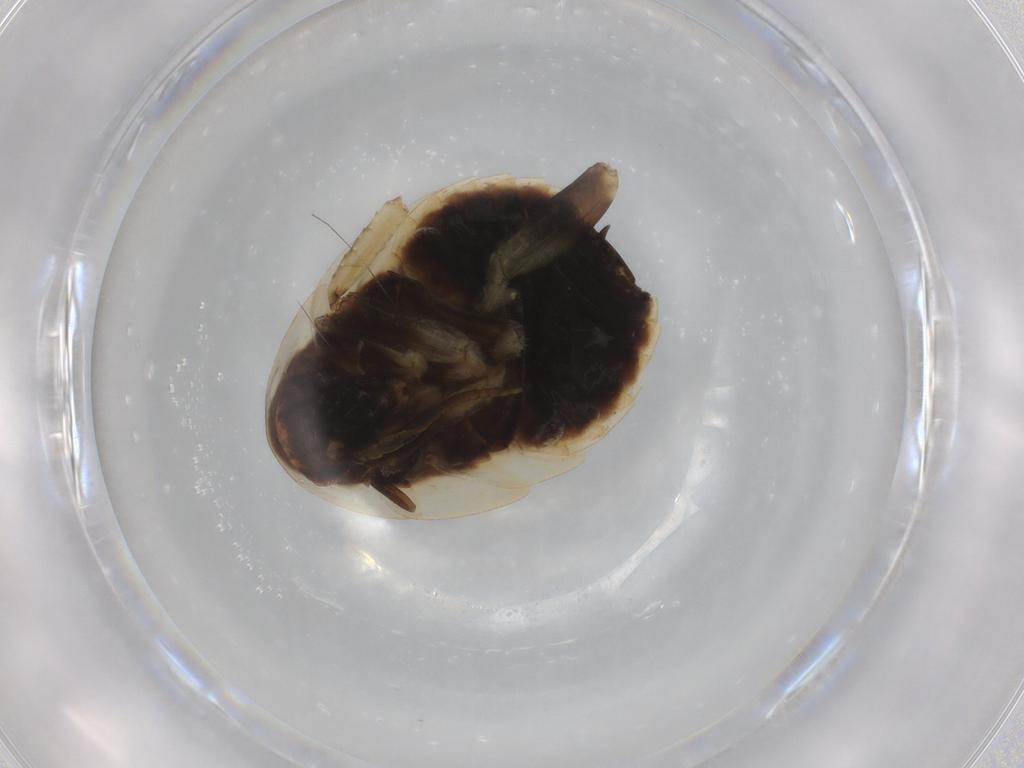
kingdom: Animalia
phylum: Arthropoda
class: Insecta
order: Blattodea
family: Ectobiidae
